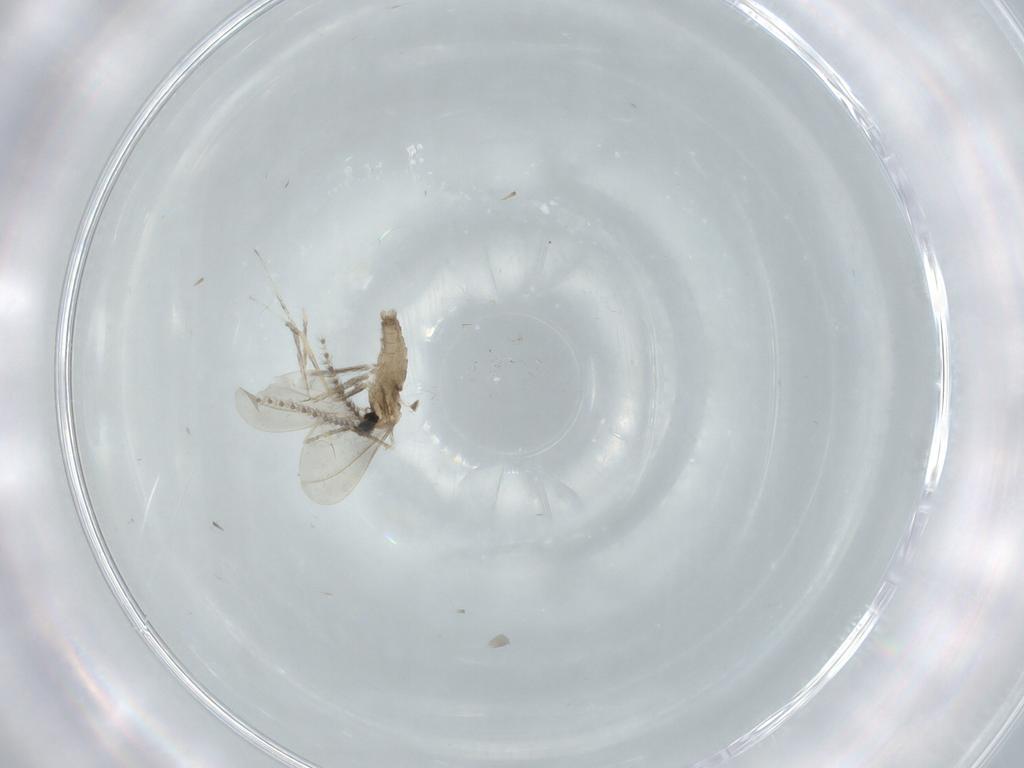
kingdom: Animalia
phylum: Arthropoda
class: Insecta
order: Diptera
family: Cecidomyiidae
